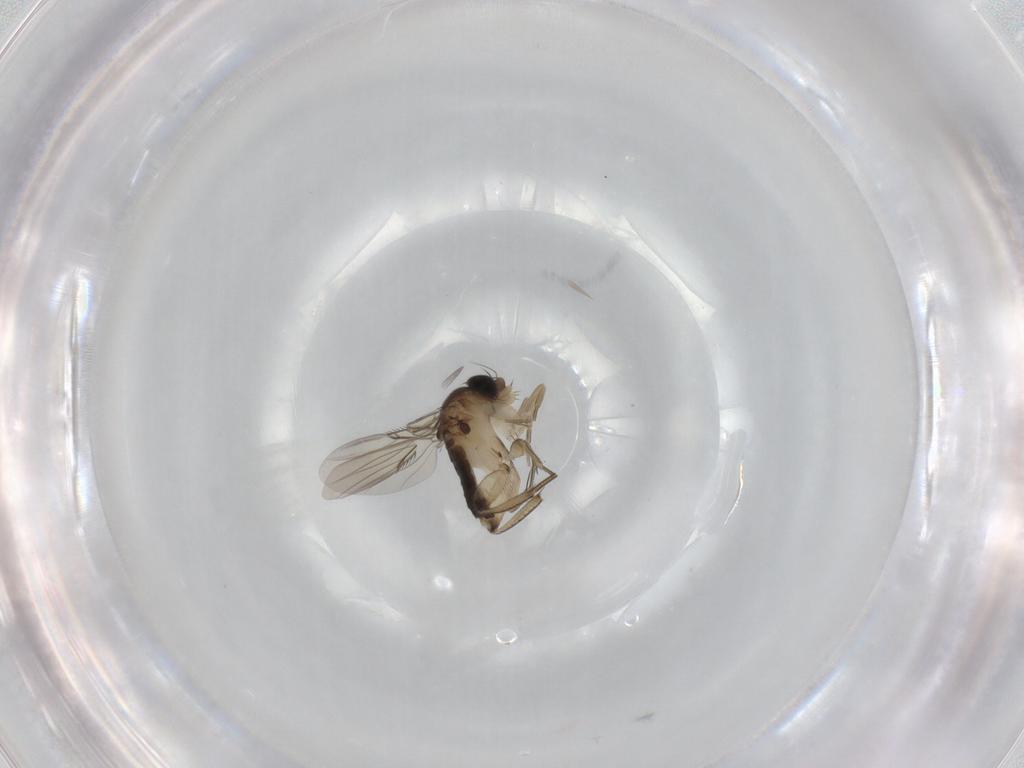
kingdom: Animalia
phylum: Arthropoda
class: Insecta
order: Diptera
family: Phoridae
